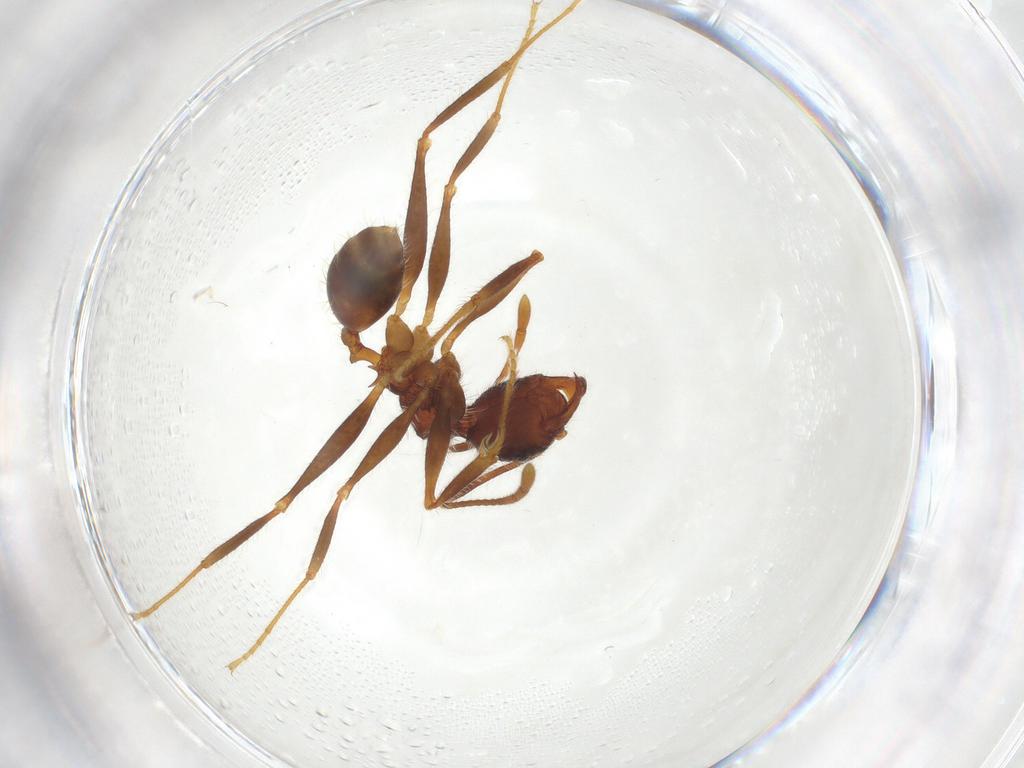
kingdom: Animalia
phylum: Arthropoda
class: Insecta
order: Hymenoptera
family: Formicidae
